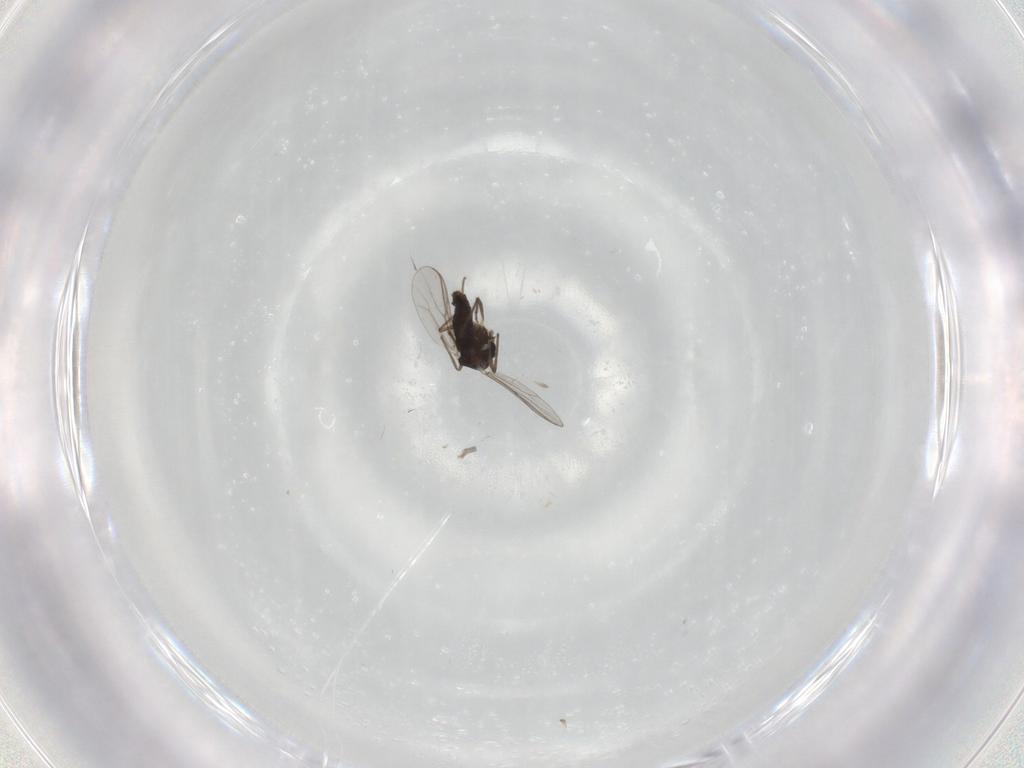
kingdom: Animalia
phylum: Arthropoda
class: Insecta
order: Diptera
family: Chironomidae
